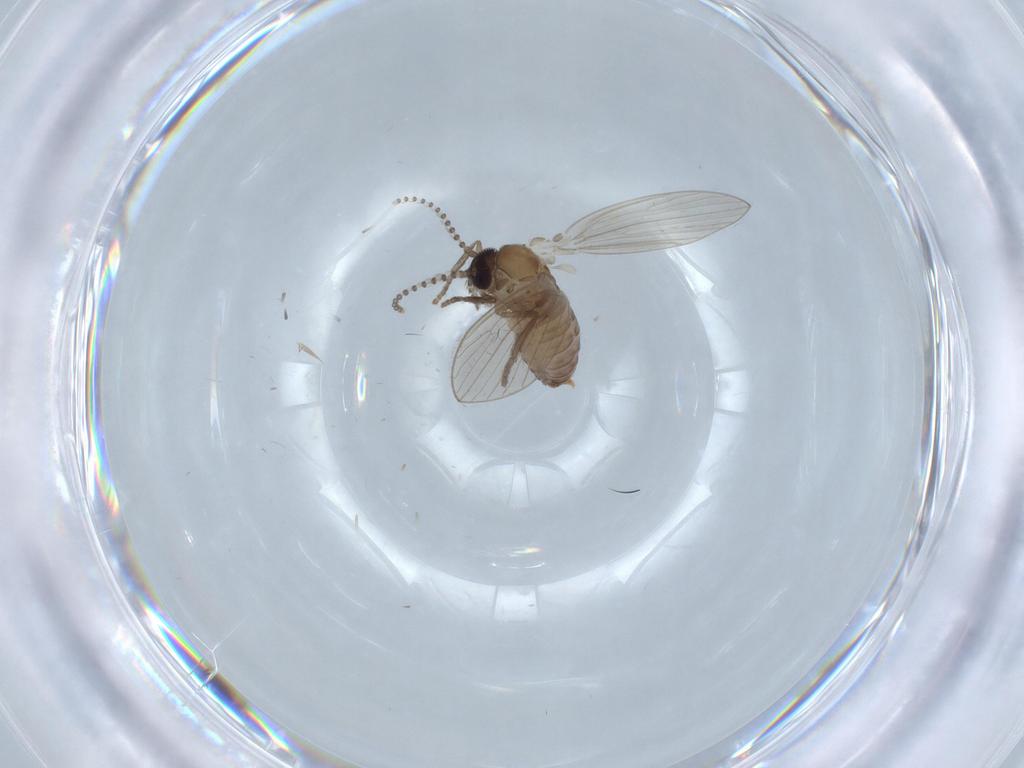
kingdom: Animalia
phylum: Arthropoda
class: Insecta
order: Diptera
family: Psychodidae
